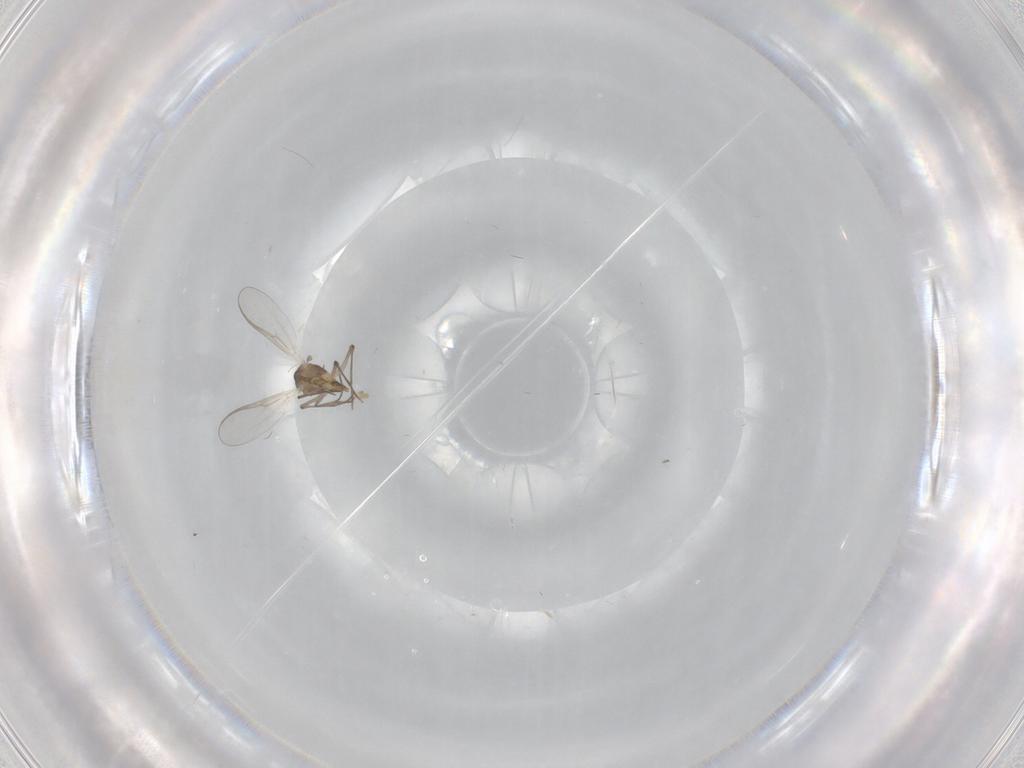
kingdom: Animalia
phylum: Arthropoda
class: Insecta
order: Diptera
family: Chironomidae
